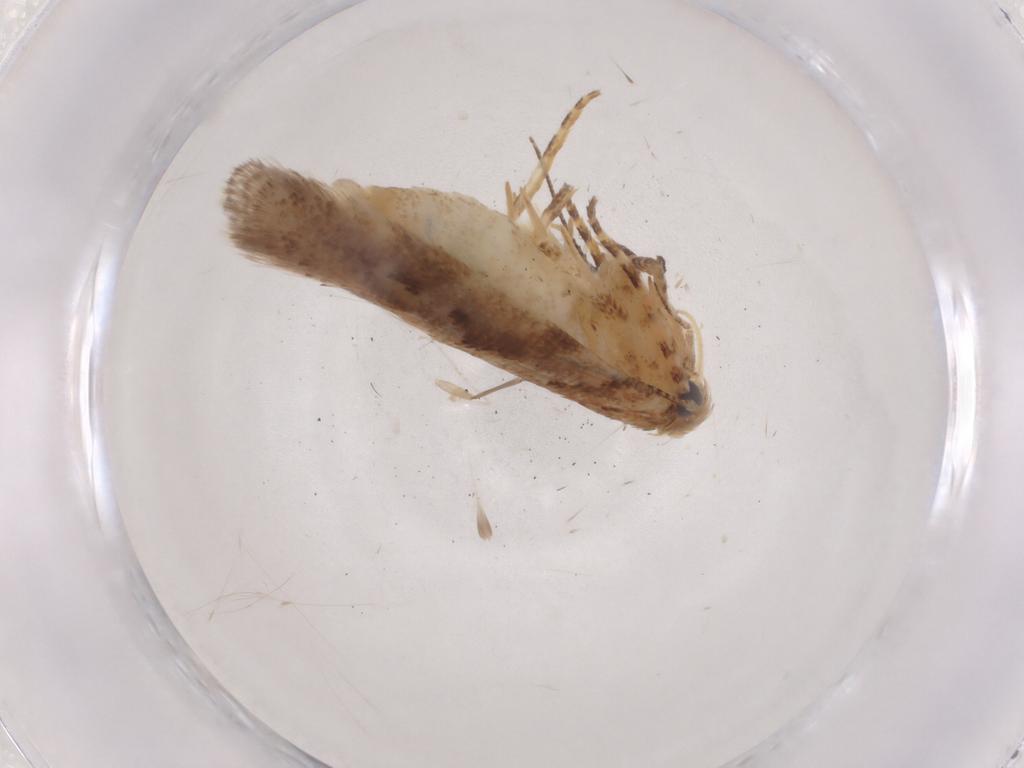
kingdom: Animalia
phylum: Arthropoda
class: Insecta
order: Lepidoptera
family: Gelechiidae
